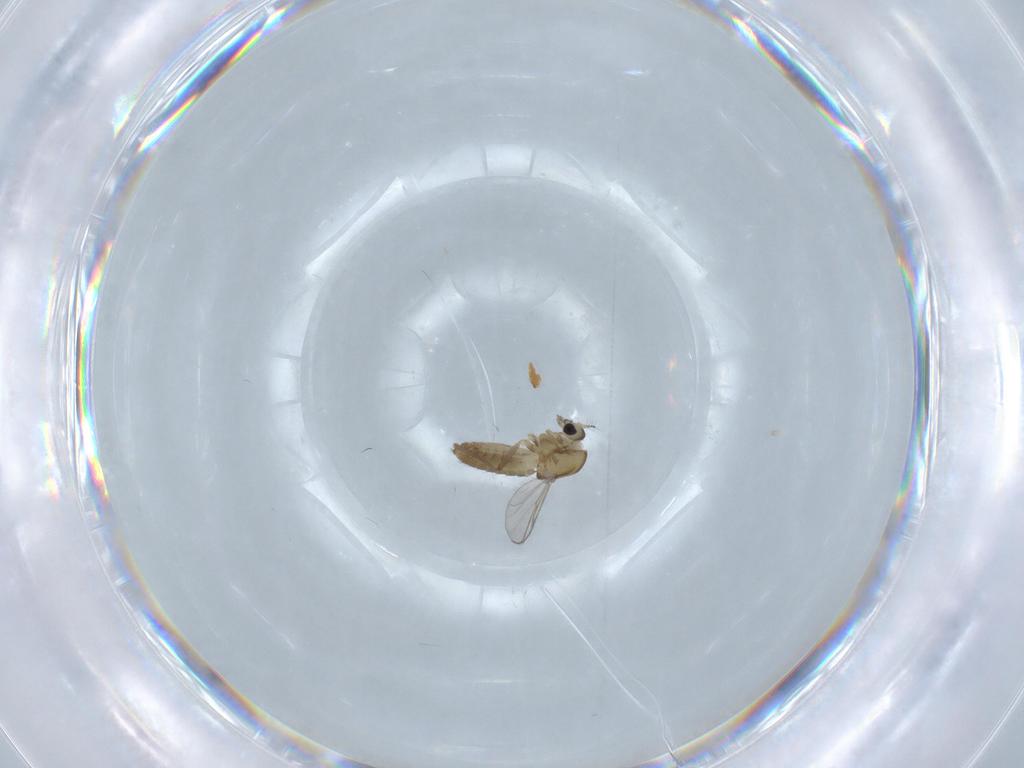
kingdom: Animalia
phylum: Arthropoda
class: Insecta
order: Diptera
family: Chironomidae
